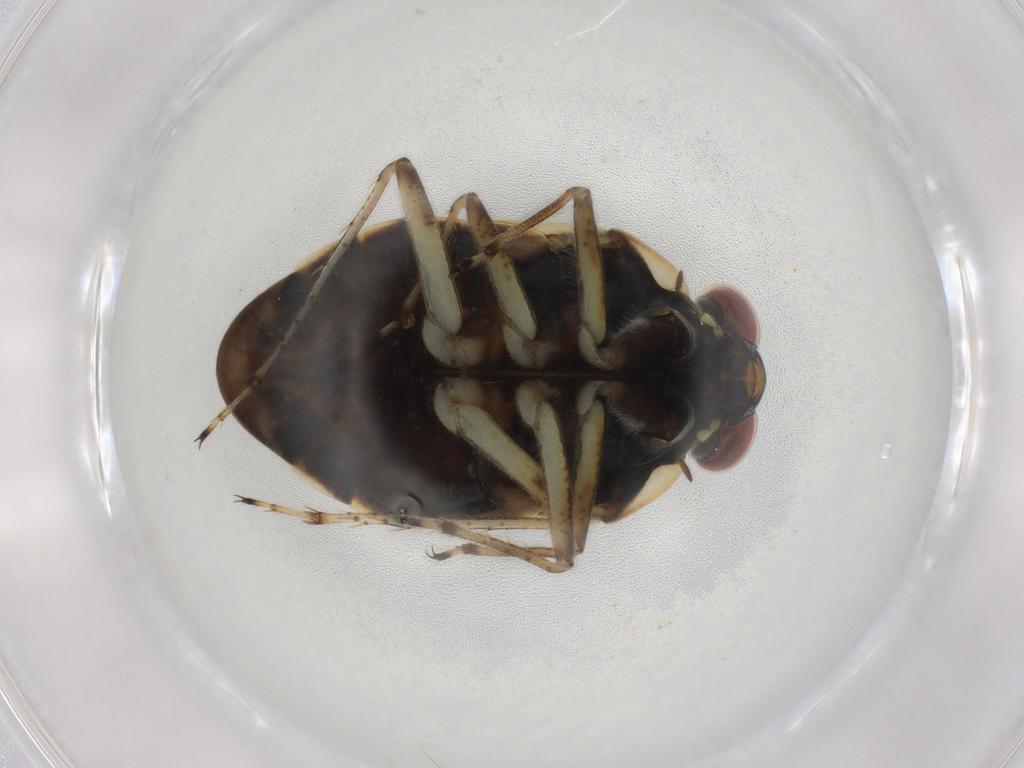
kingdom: Animalia
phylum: Arthropoda
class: Insecta
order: Hemiptera
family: Ochteridae
